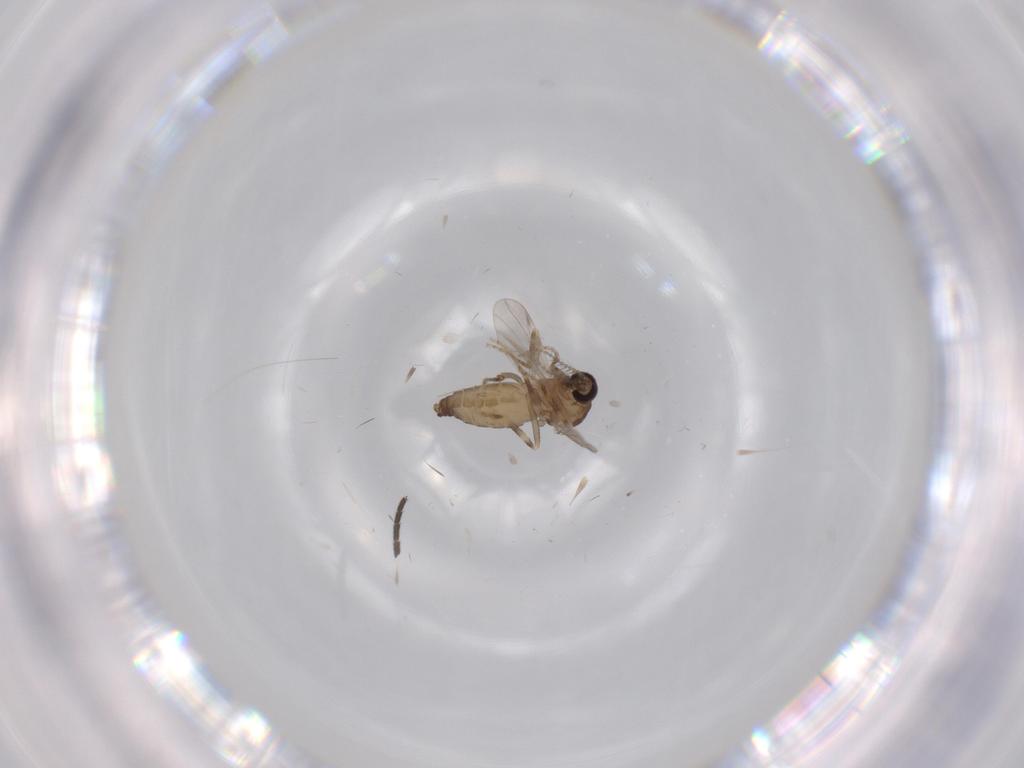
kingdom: Animalia
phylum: Arthropoda
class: Insecta
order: Diptera
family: Ceratopogonidae
